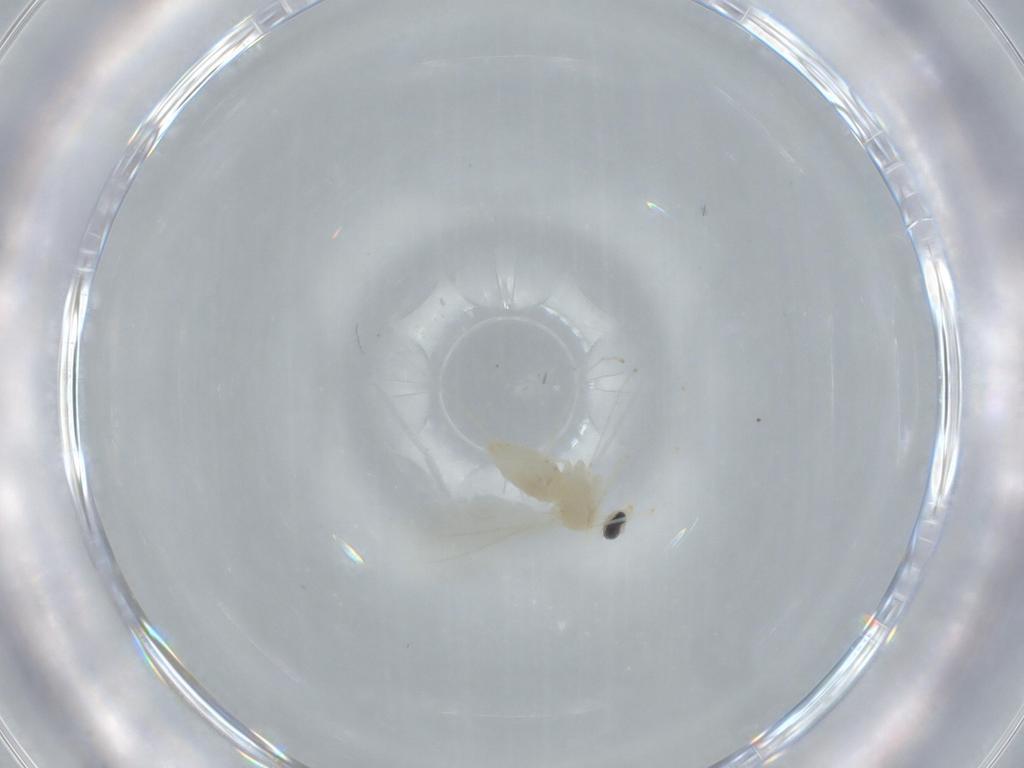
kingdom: Animalia
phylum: Arthropoda
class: Insecta
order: Diptera
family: Cecidomyiidae
